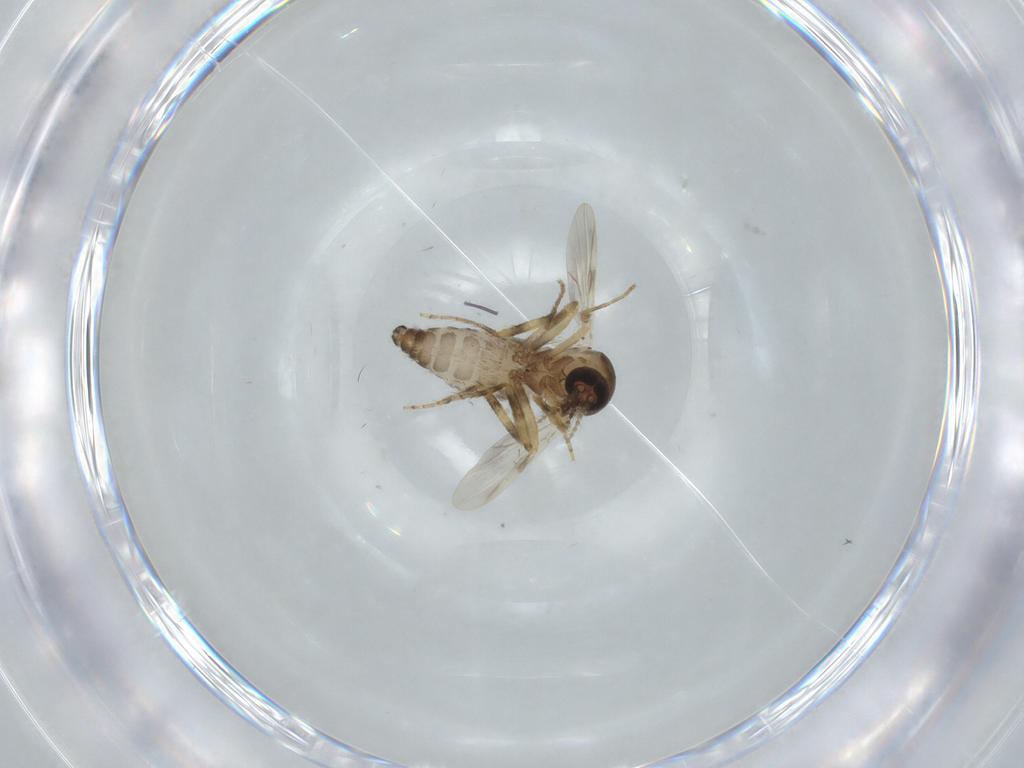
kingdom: Animalia
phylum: Arthropoda
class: Insecta
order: Diptera
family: Ceratopogonidae
